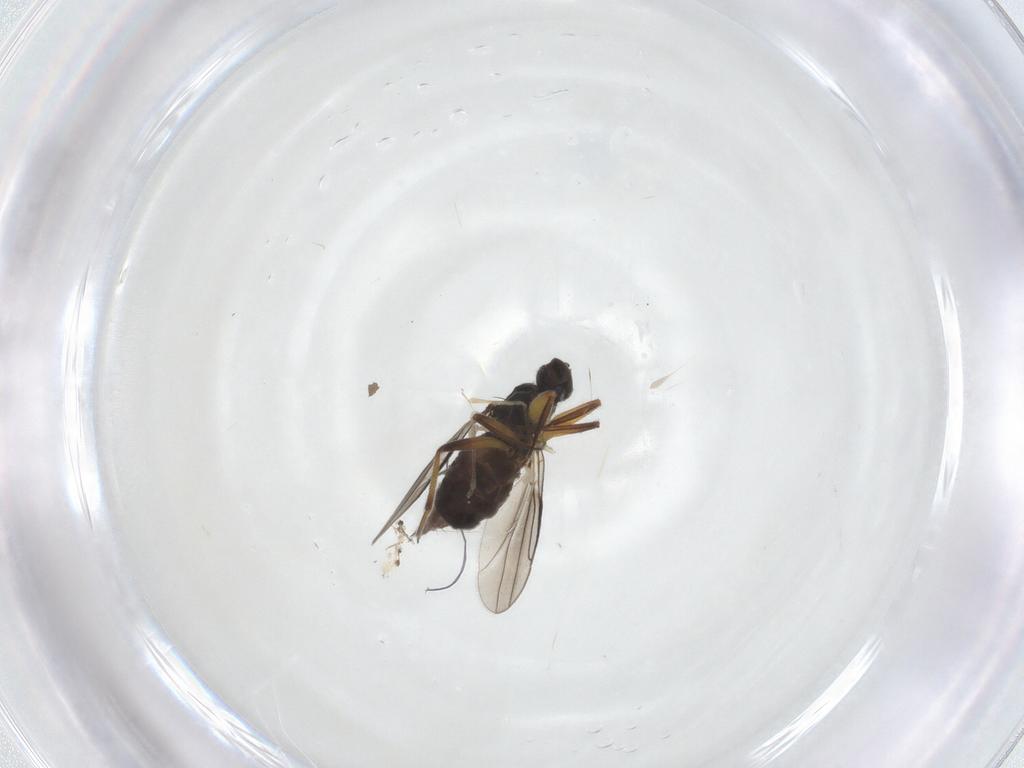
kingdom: Animalia
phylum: Arthropoda
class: Insecta
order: Diptera
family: Hybotidae
